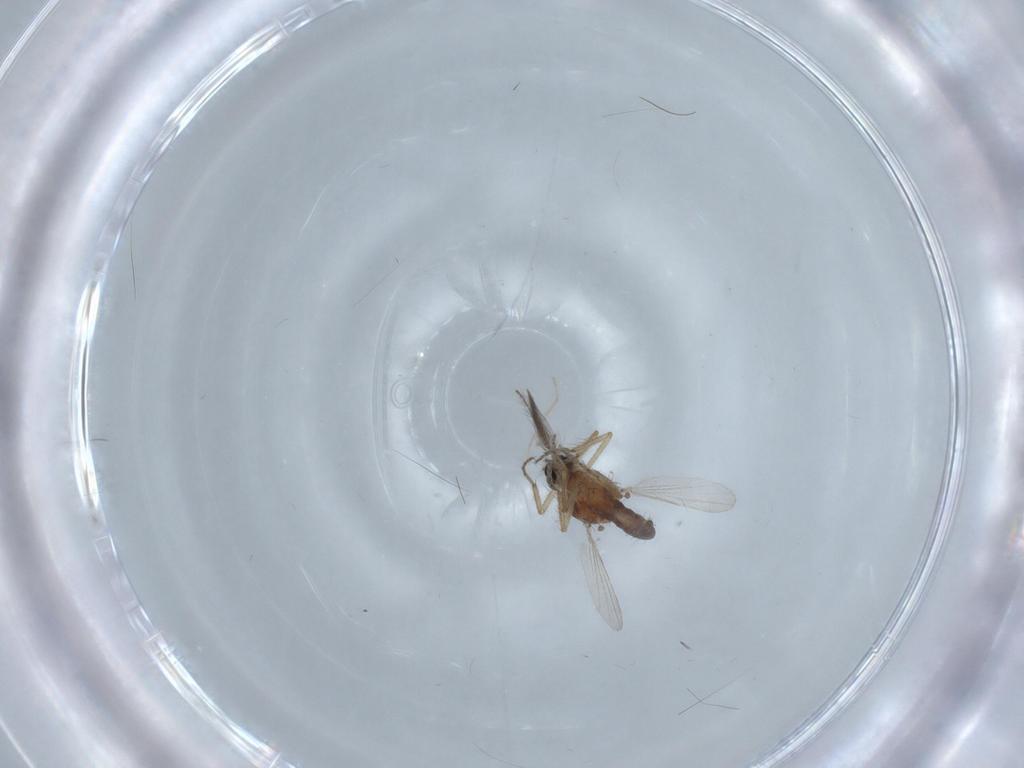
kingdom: Animalia
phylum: Arthropoda
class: Insecta
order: Diptera
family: Ceratopogonidae
